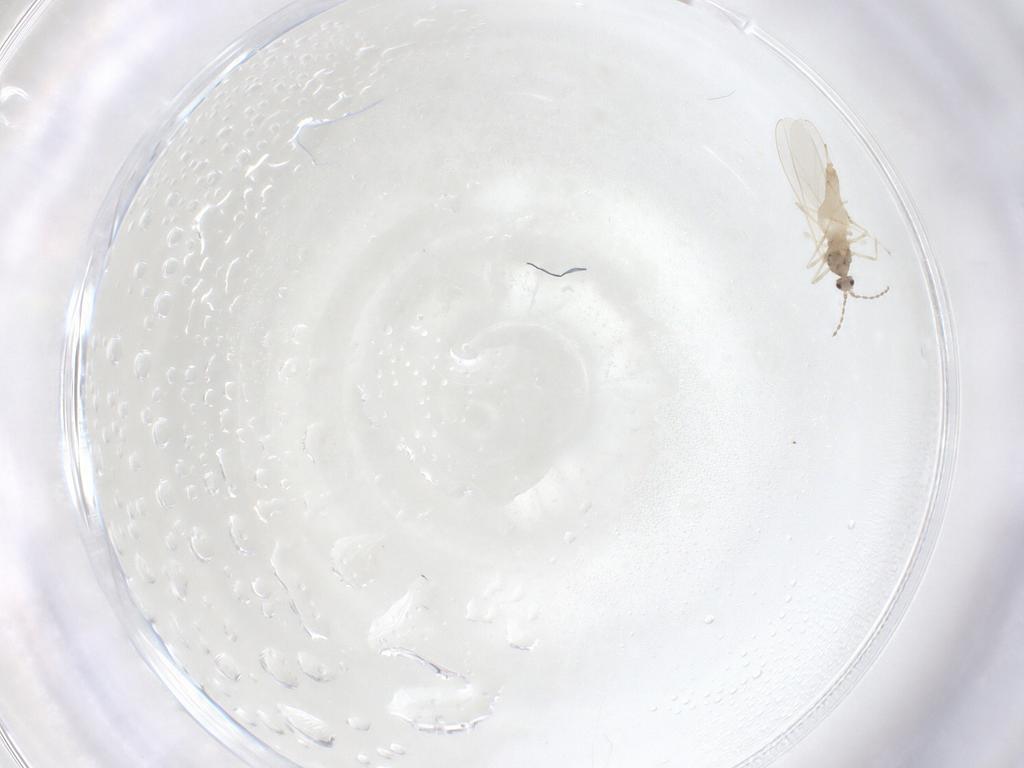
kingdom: Animalia
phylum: Arthropoda
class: Insecta
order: Diptera
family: Cecidomyiidae
